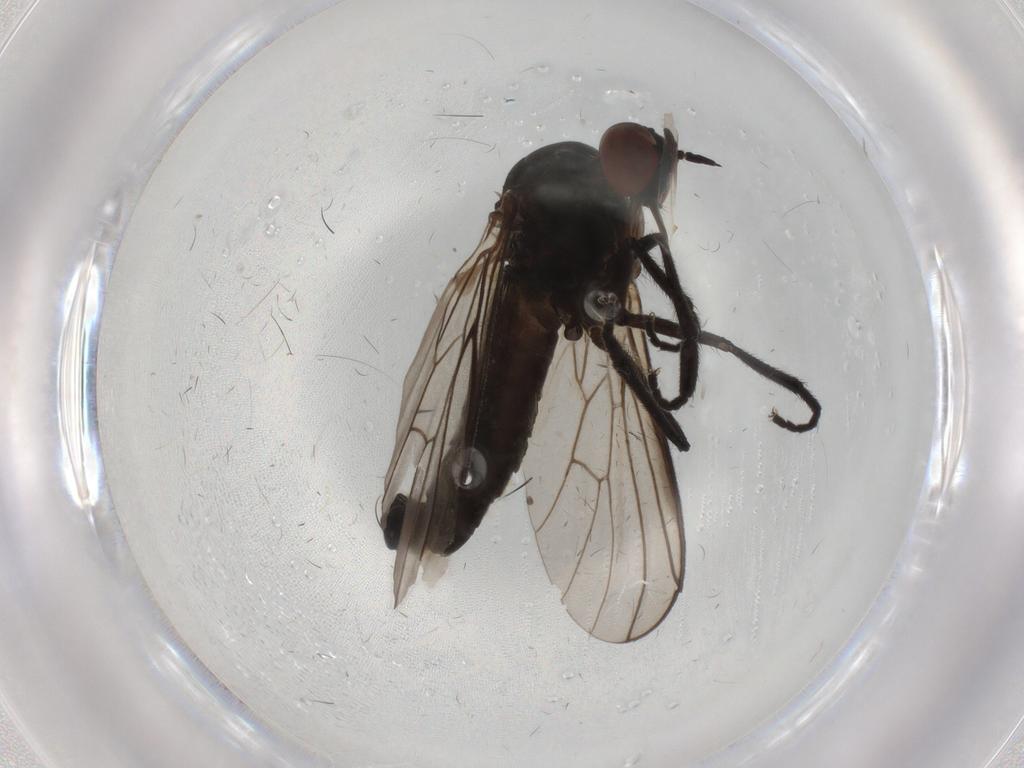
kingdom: Animalia
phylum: Arthropoda
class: Insecta
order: Diptera
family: Empididae
